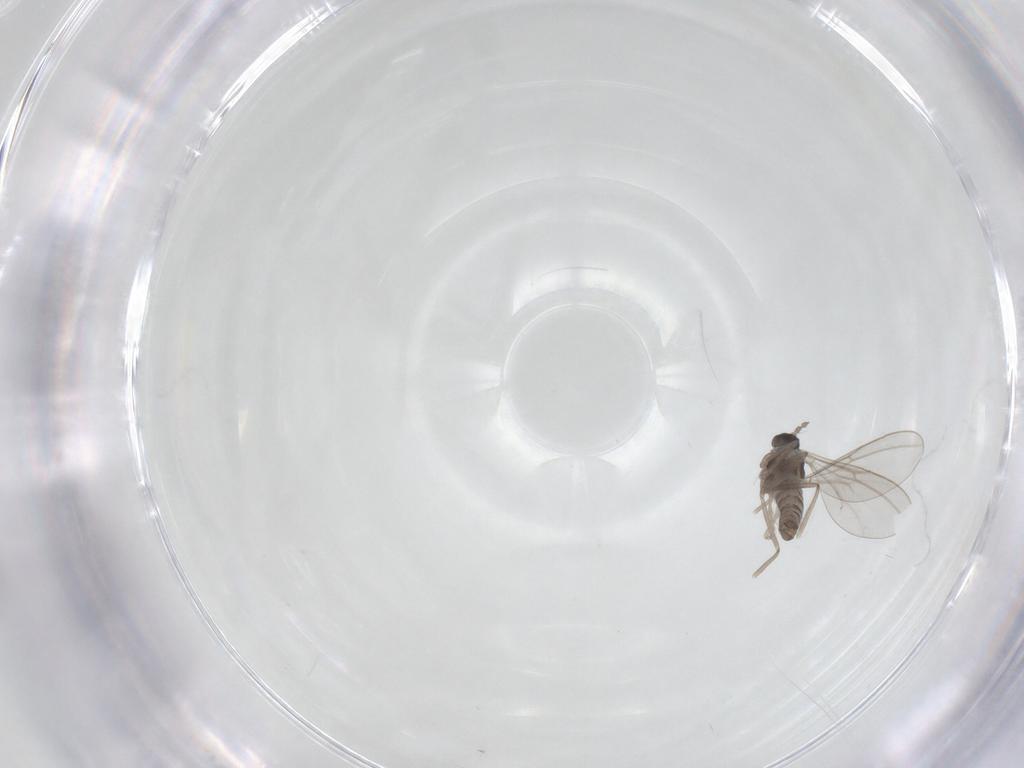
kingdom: Animalia
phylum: Arthropoda
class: Insecta
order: Diptera
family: Cecidomyiidae
